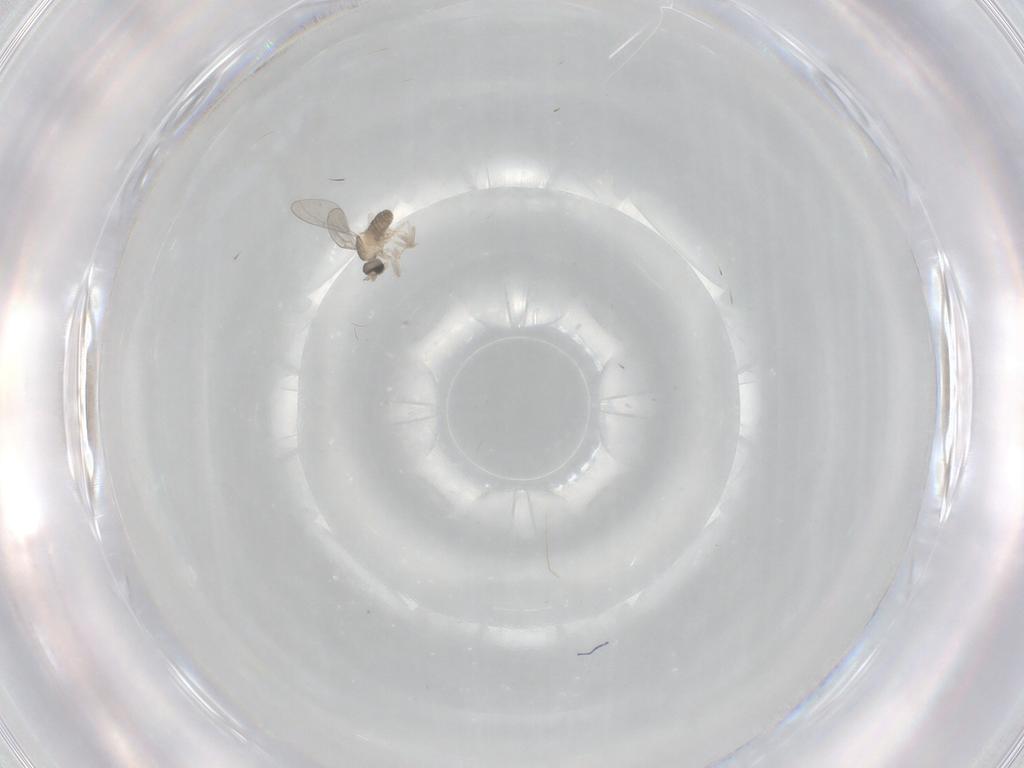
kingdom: Animalia
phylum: Arthropoda
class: Insecta
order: Diptera
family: Cecidomyiidae
